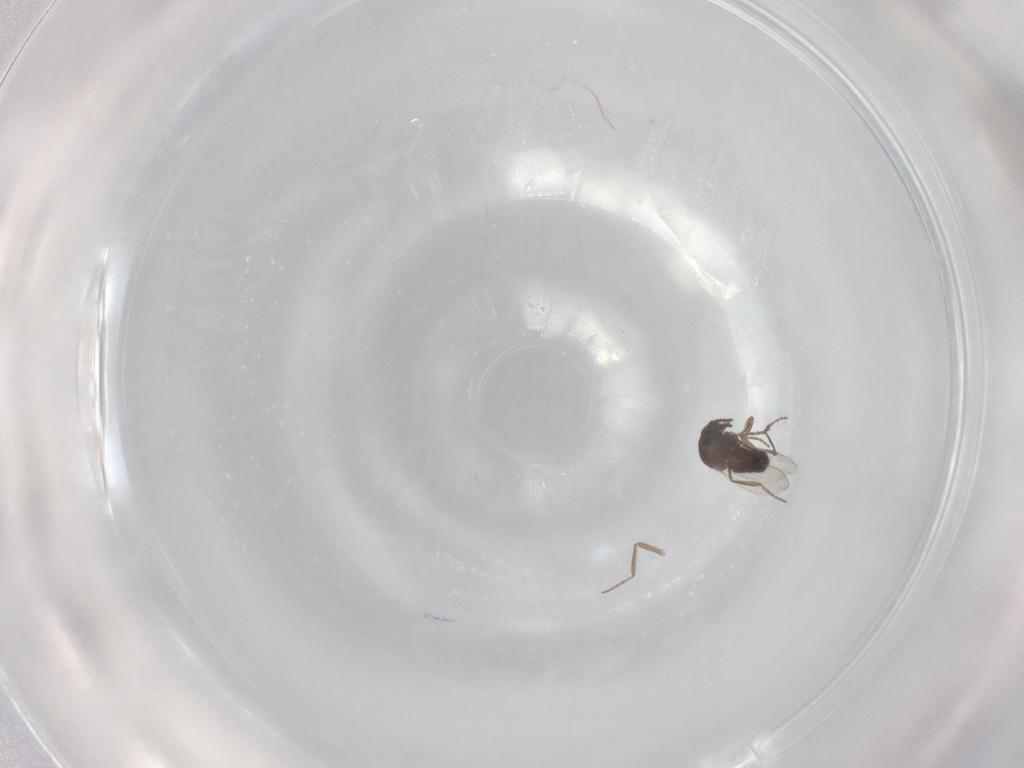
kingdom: Animalia
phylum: Arthropoda
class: Insecta
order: Diptera
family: Ceratopogonidae
